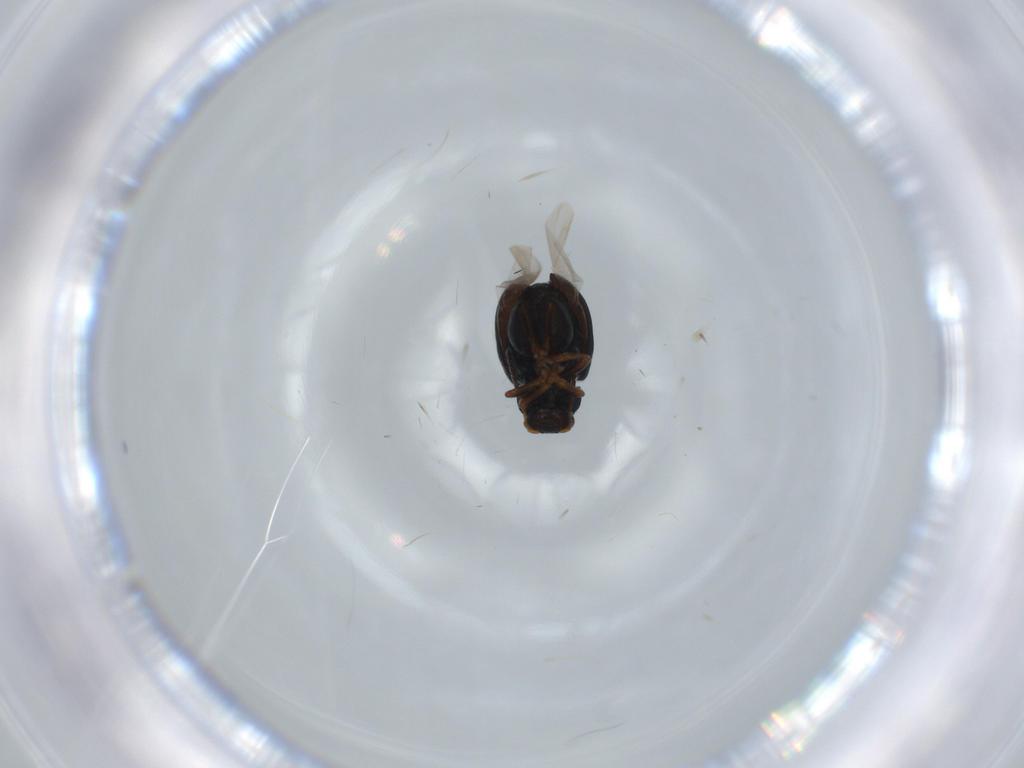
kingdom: Animalia
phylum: Arthropoda
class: Insecta
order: Coleoptera
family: Chrysomelidae
